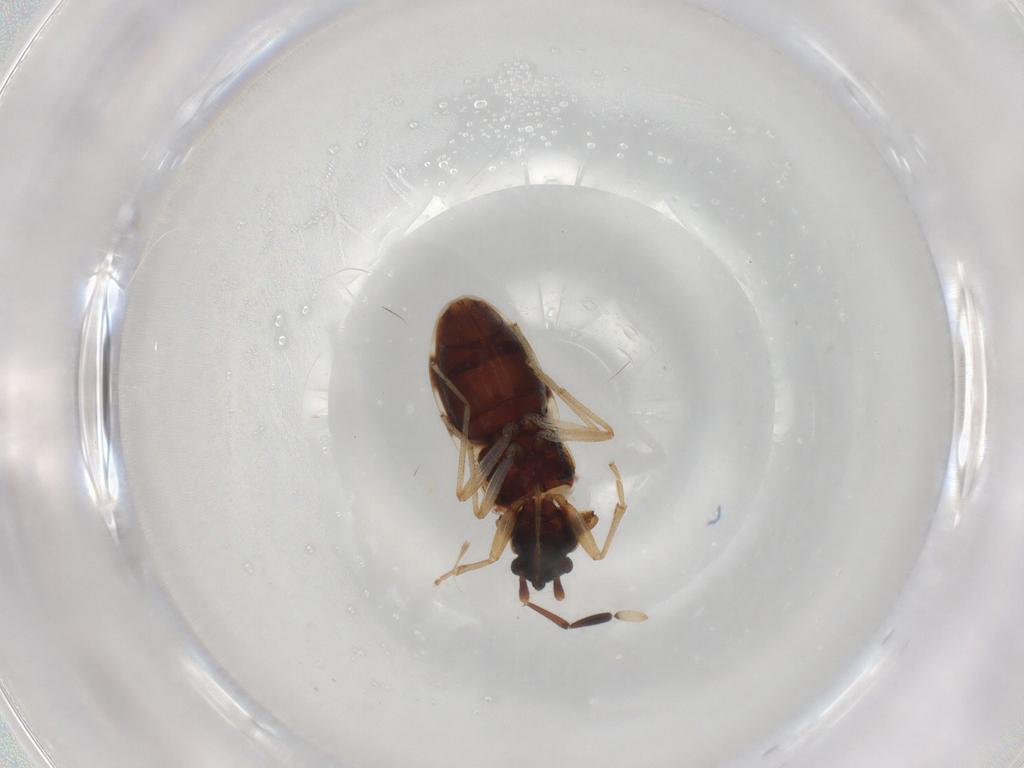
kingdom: Animalia
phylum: Arthropoda
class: Insecta
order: Hemiptera
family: Lygaeidae
